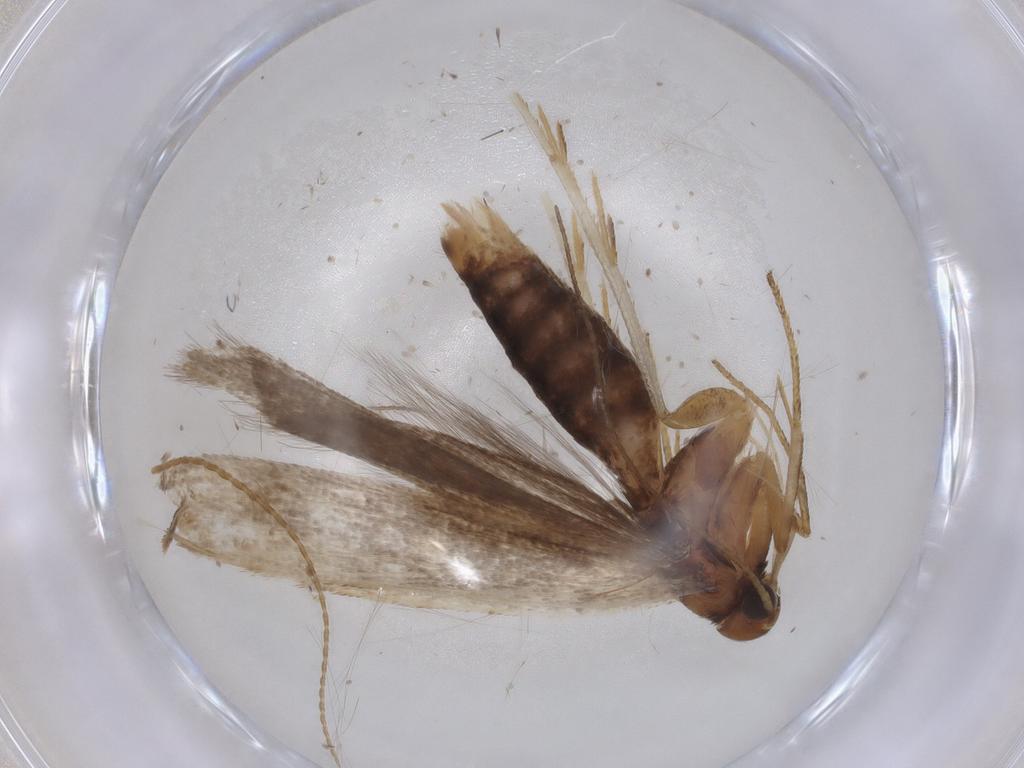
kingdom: Animalia
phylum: Arthropoda
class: Insecta
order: Lepidoptera
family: Gelechiidae
